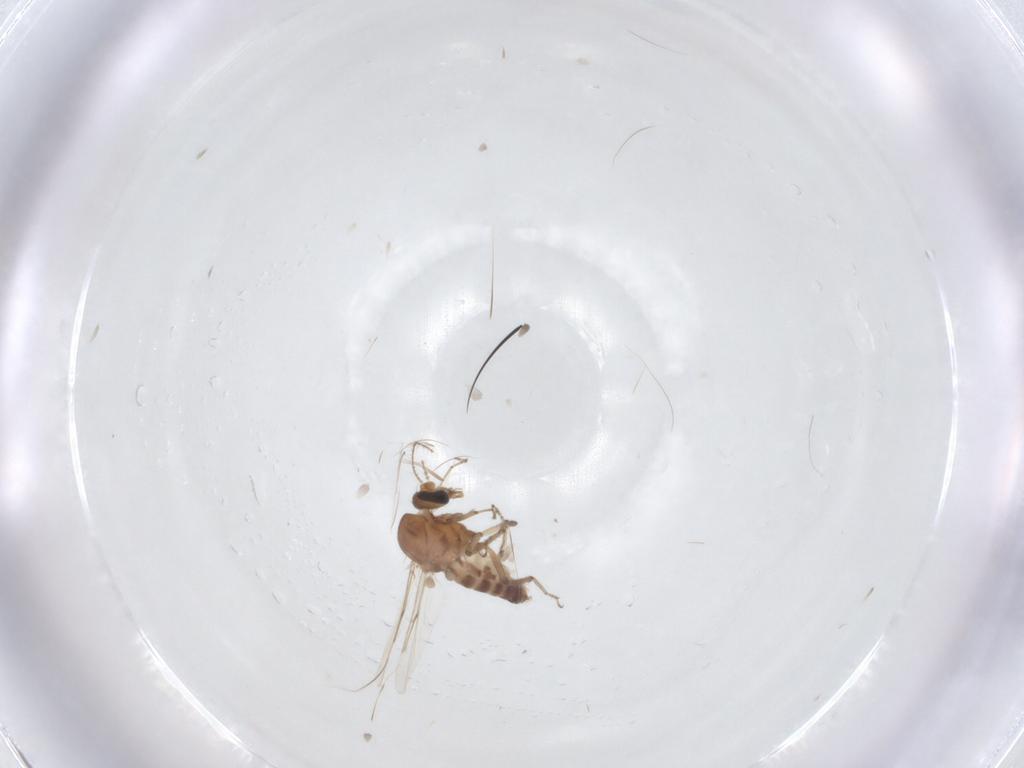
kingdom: Animalia
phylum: Arthropoda
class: Insecta
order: Diptera
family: Ceratopogonidae
